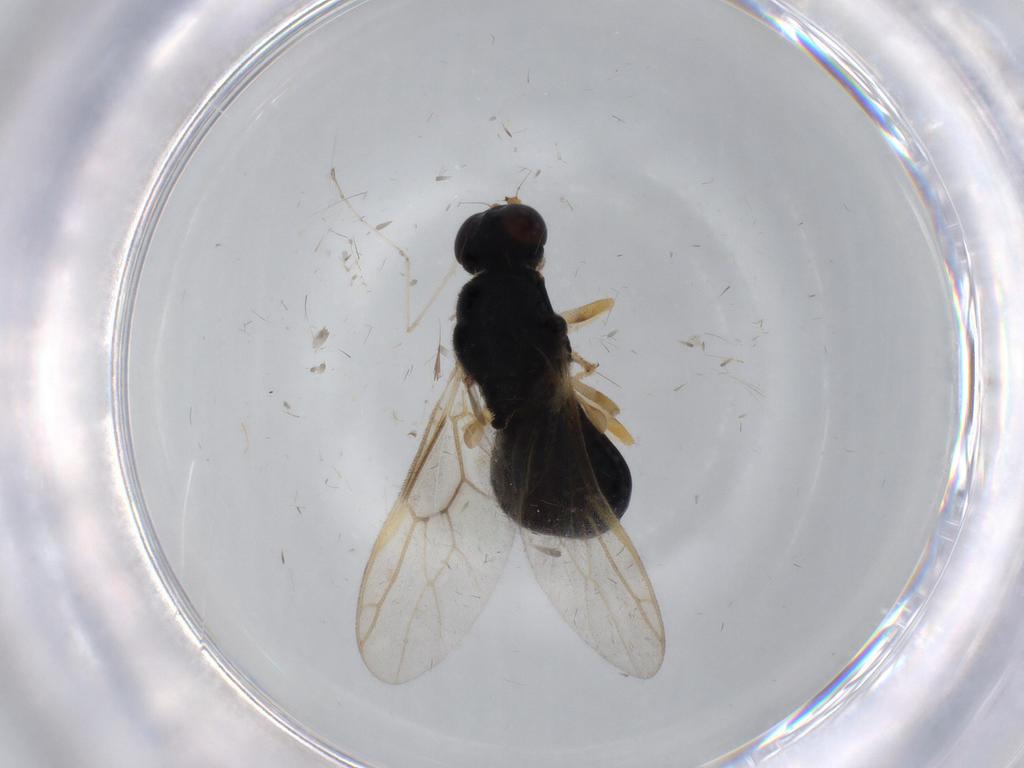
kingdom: Animalia
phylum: Arthropoda
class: Insecta
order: Diptera
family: Stratiomyidae
